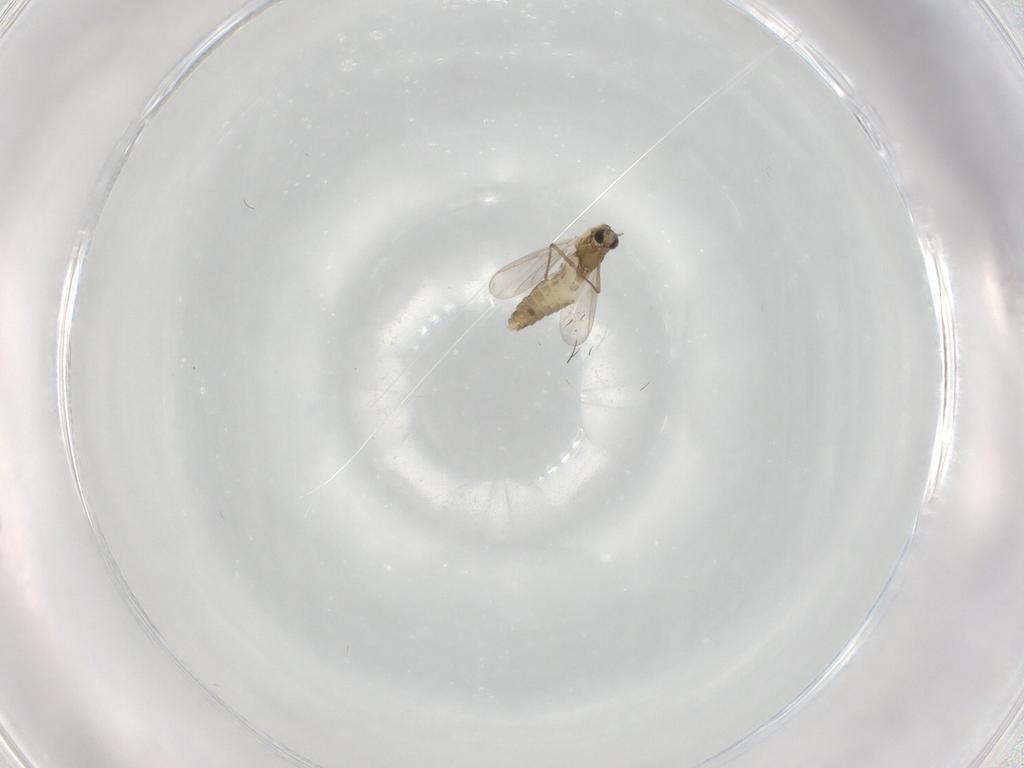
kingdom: Animalia
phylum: Arthropoda
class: Insecta
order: Diptera
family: Chironomidae
